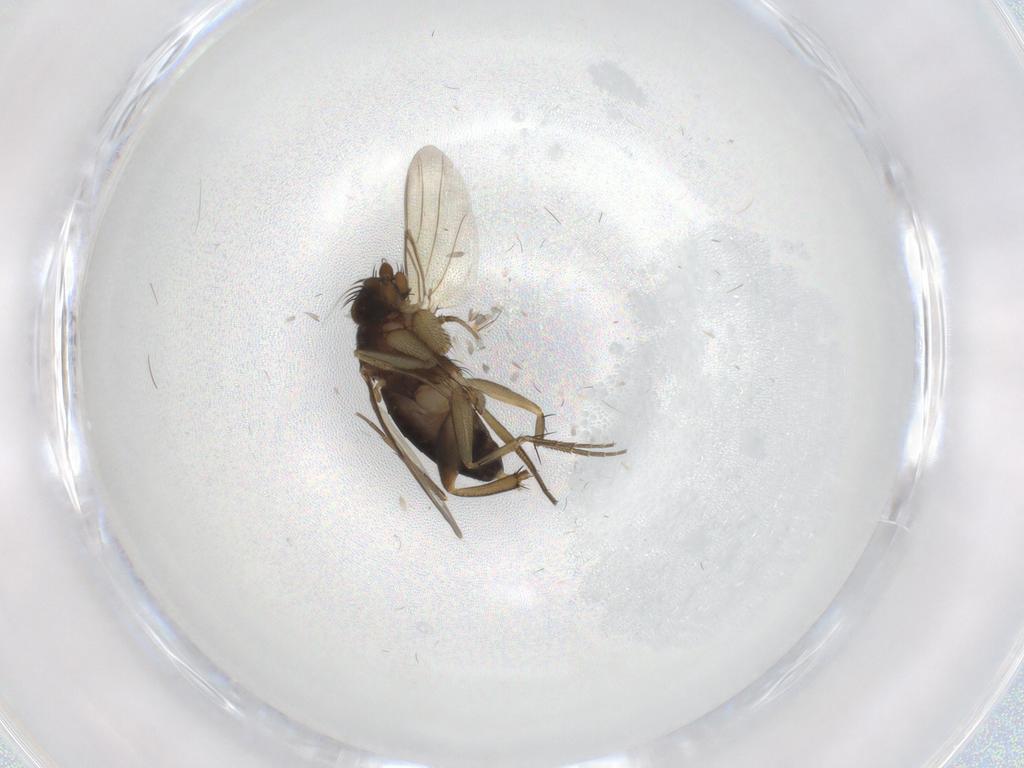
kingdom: Animalia
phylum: Arthropoda
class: Insecta
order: Diptera
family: Phoridae
